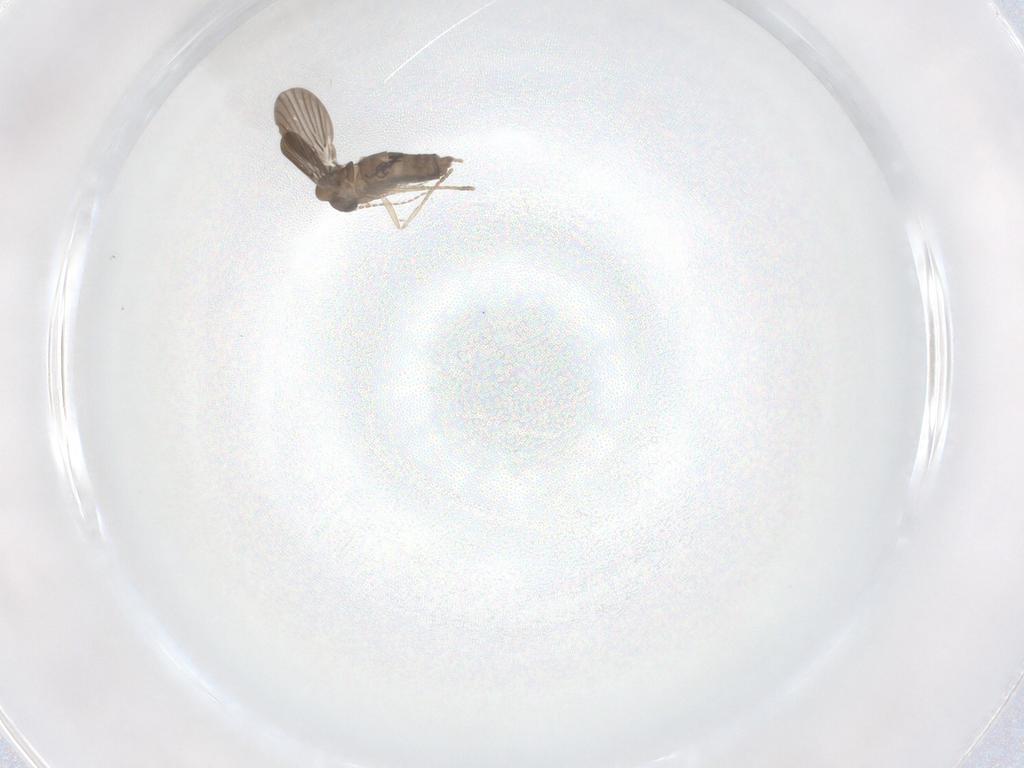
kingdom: Animalia
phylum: Arthropoda
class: Insecta
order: Diptera
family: Cecidomyiidae
